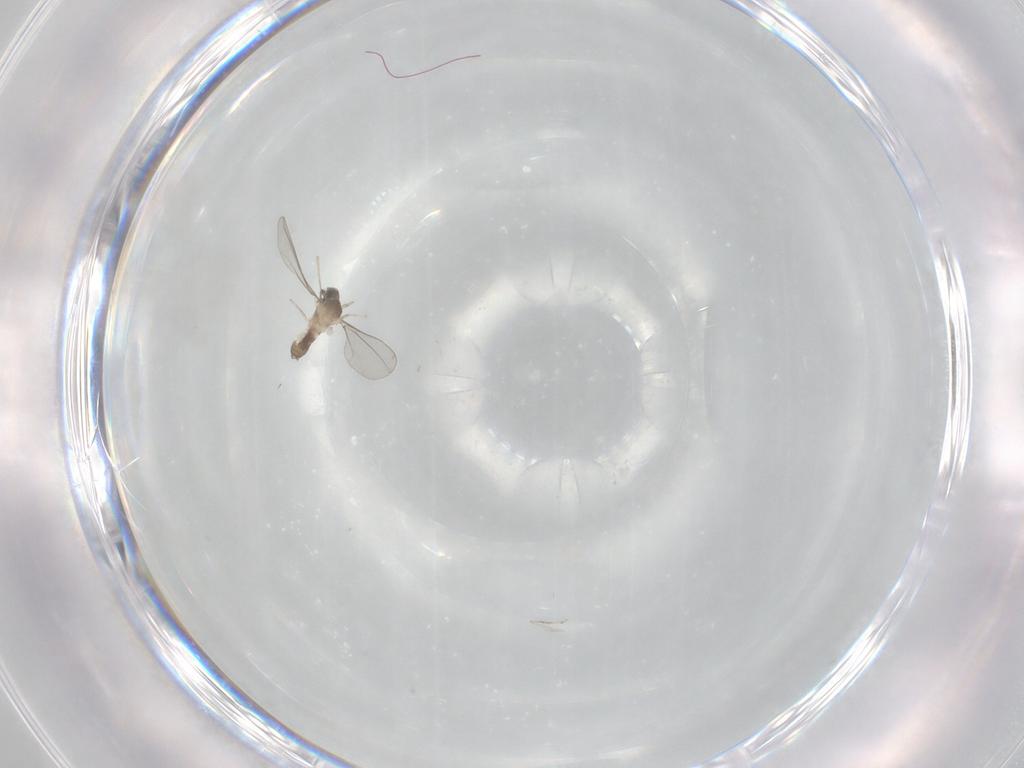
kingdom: Animalia
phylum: Arthropoda
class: Insecta
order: Diptera
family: Cecidomyiidae
